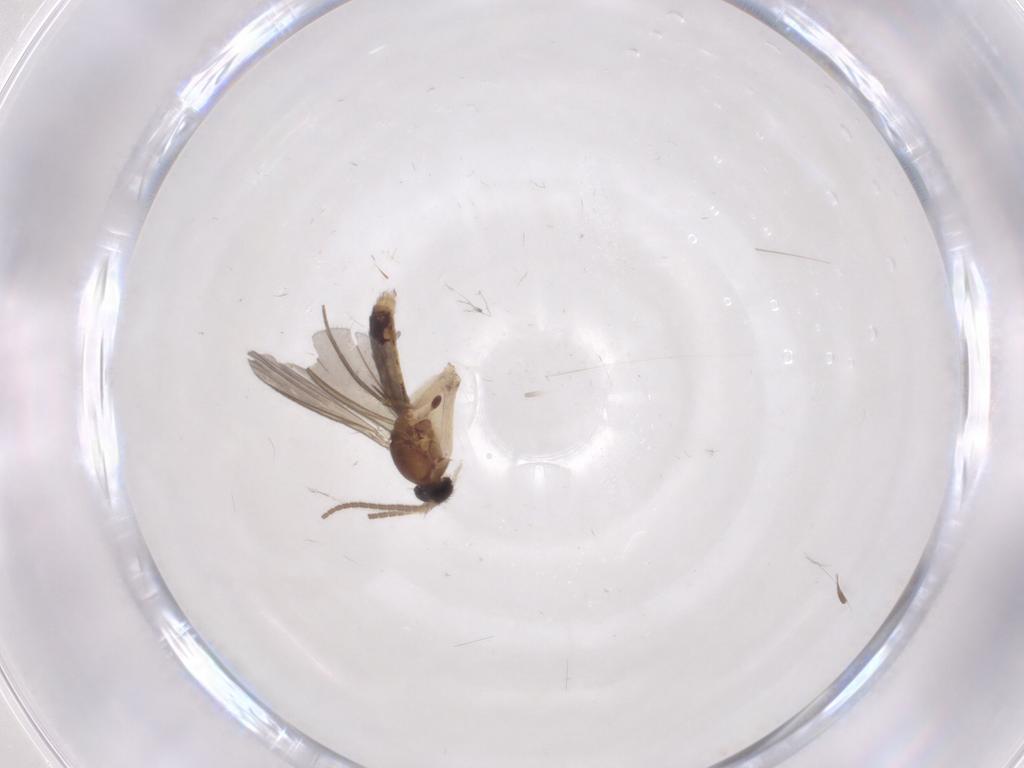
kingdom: Animalia
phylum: Arthropoda
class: Insecta
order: Diptera
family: Mycetophilidae
